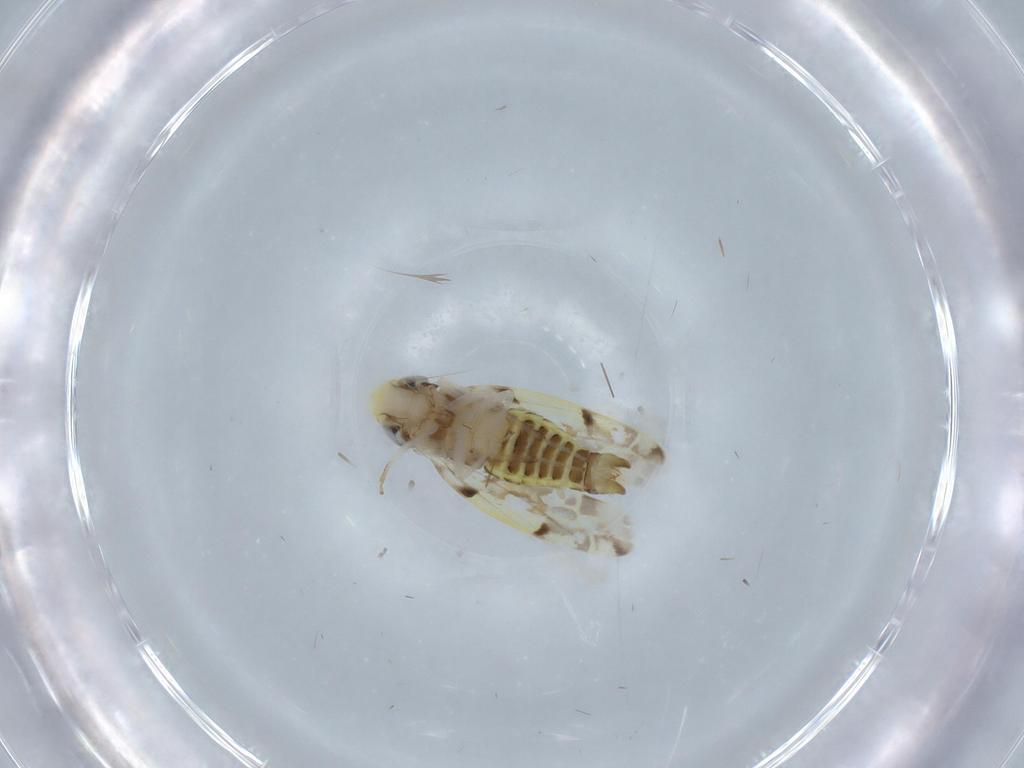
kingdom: Animalia
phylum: Arthropoda
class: Insecta
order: Hemiptera
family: Cicadellidae
